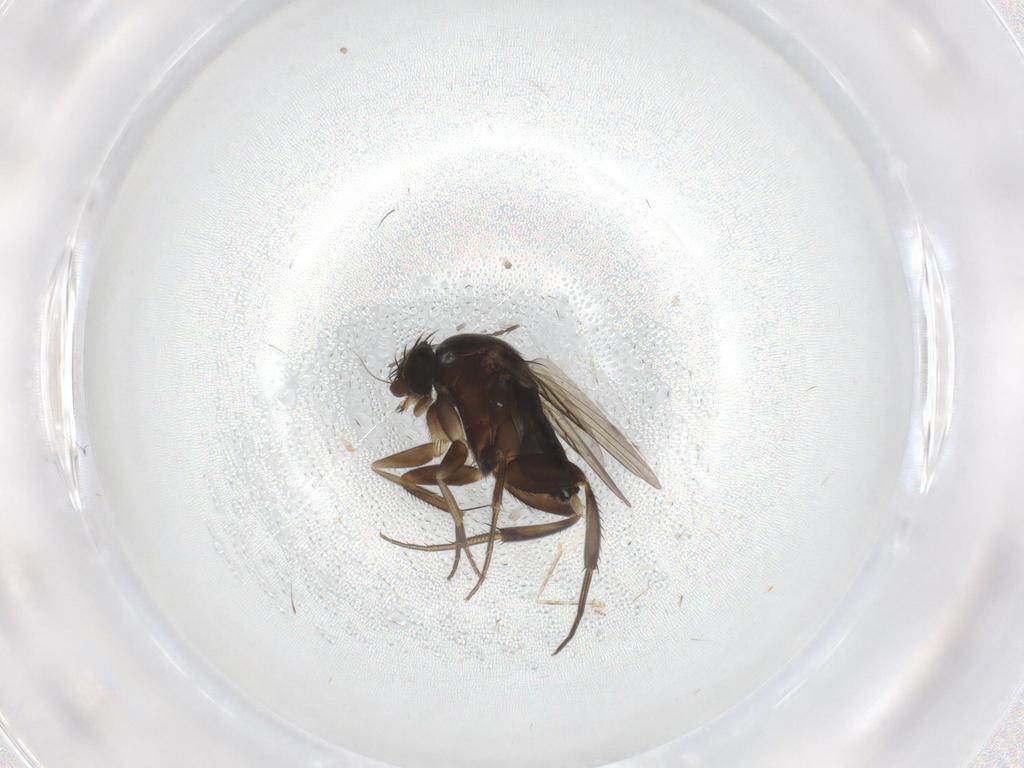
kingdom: Animalia
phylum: Arthropoda
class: Insecta
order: Diptera
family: Phoridae
